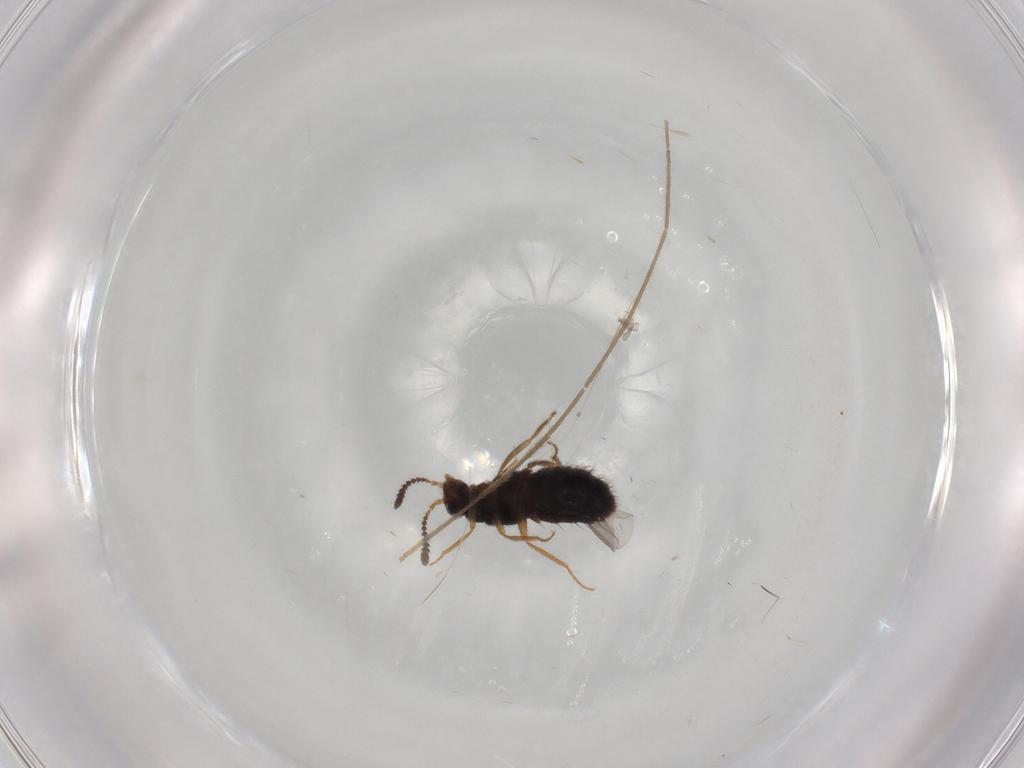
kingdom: Animalia
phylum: Arthropoda
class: Insecta
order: Coleoptera
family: Staphylinidae
